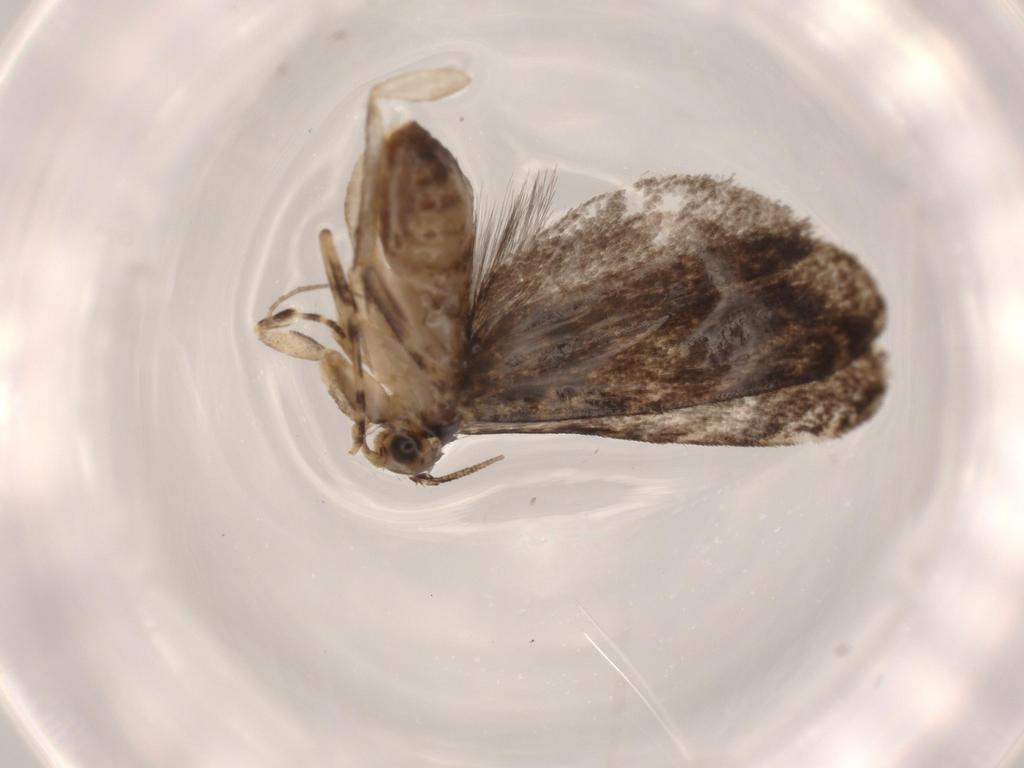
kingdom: Animalia
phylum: Arthropoda
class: Insecta
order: Lepidoptera
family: Tineidae
